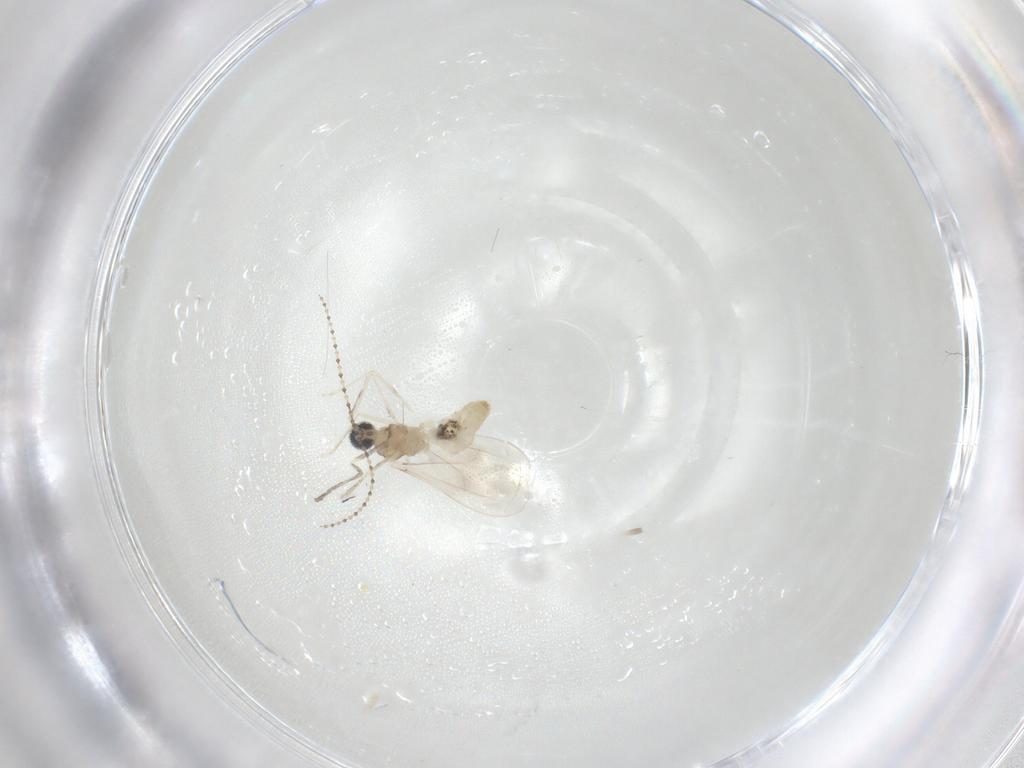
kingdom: Animalia
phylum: Arthropoda
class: Insecta
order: Diptera
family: Cecidomyiidae
